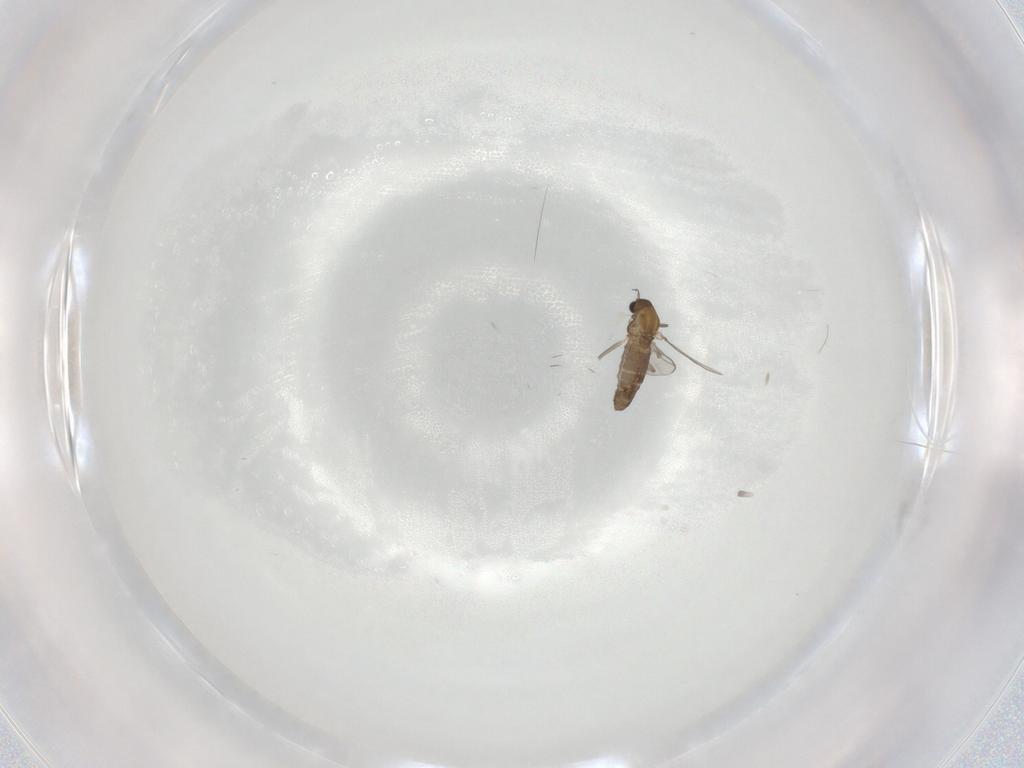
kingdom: Animalia
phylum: Arthropoda
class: Insecta
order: Diptera
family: Chironomidae
